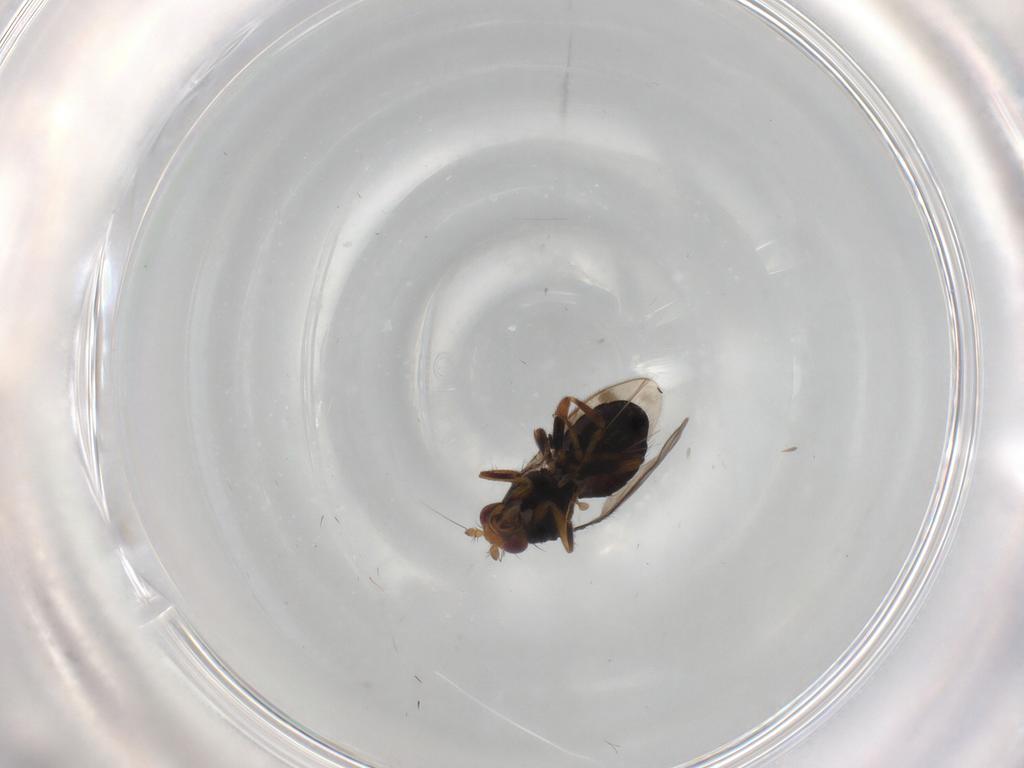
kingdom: Animalia
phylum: Arthropoda
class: Insecta
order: Diptera
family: Sphaeroceridae
